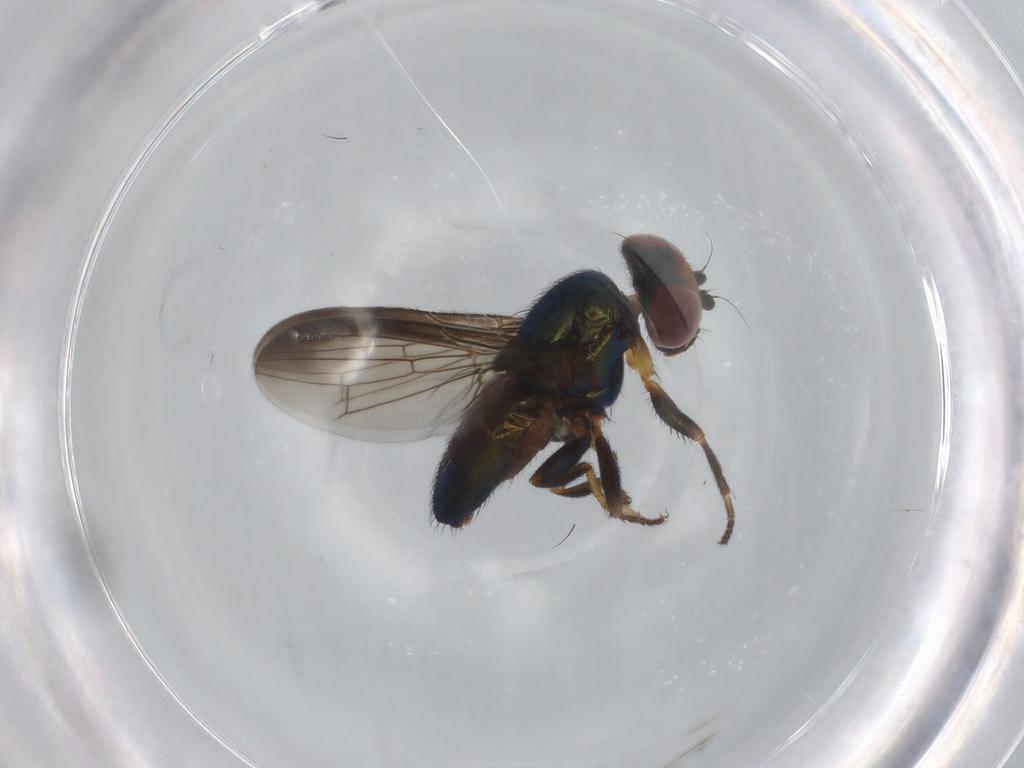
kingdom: Animalia
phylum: Arthropoda
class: Insecta
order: Diptera
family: Ulidiidae
